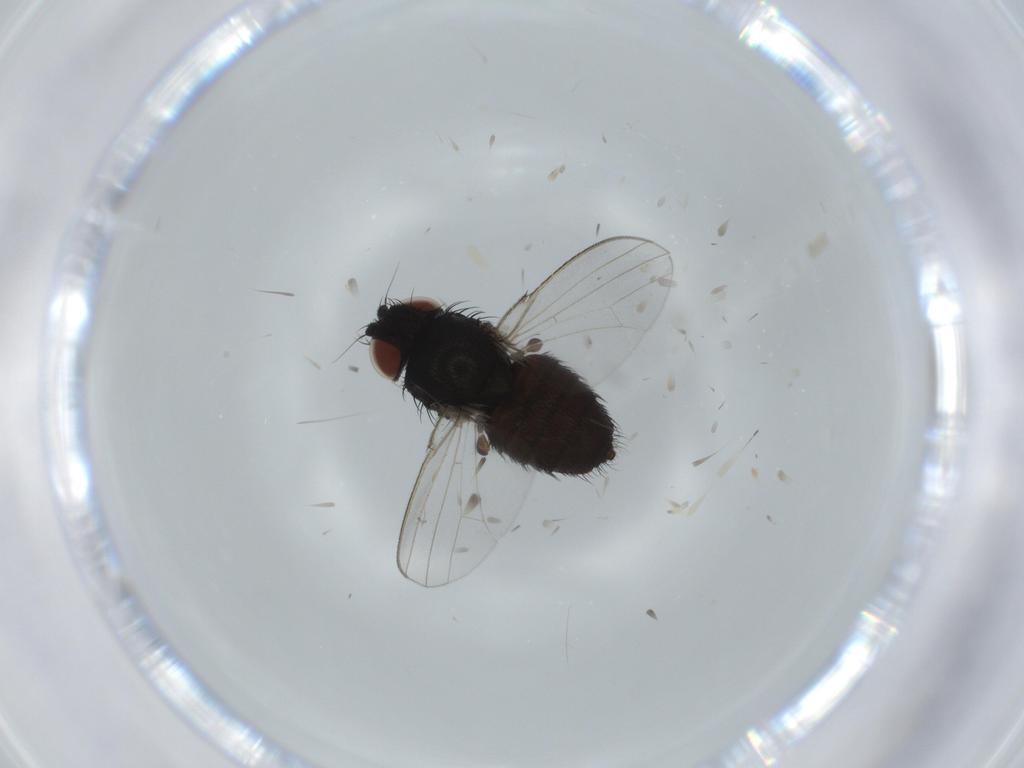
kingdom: Animalia
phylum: Arthropoda
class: Insecta
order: Diptera
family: Milichiidae
